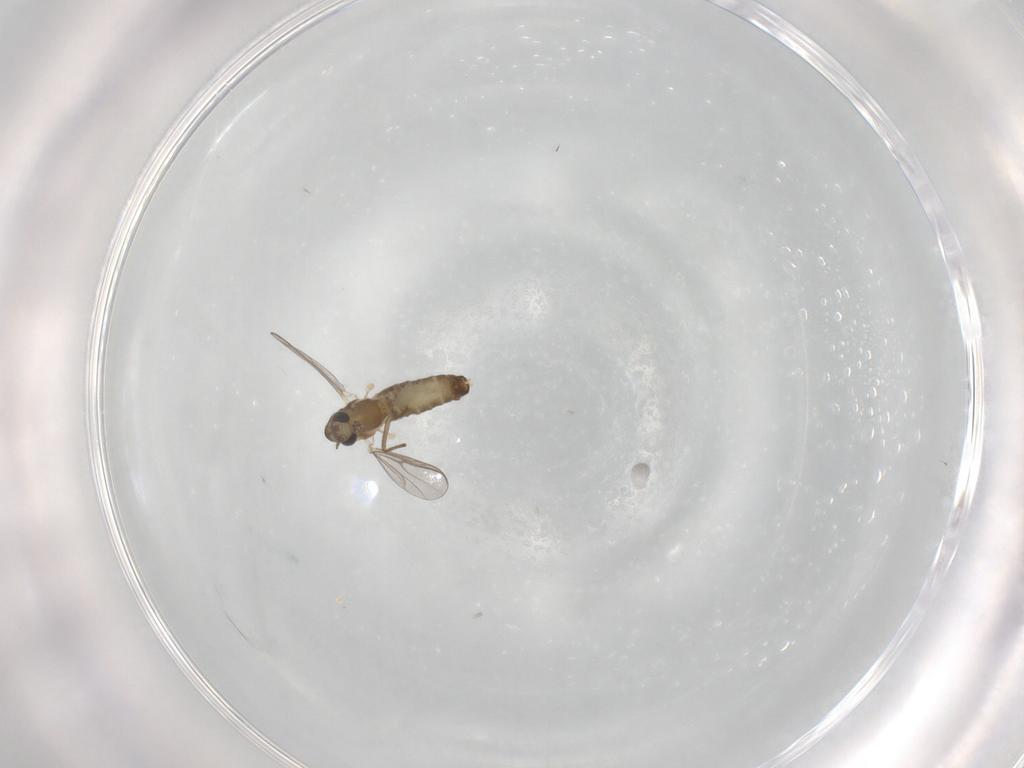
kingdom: Animalia
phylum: Arthropoda
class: Insecta
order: Diptera
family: Chironomidae
